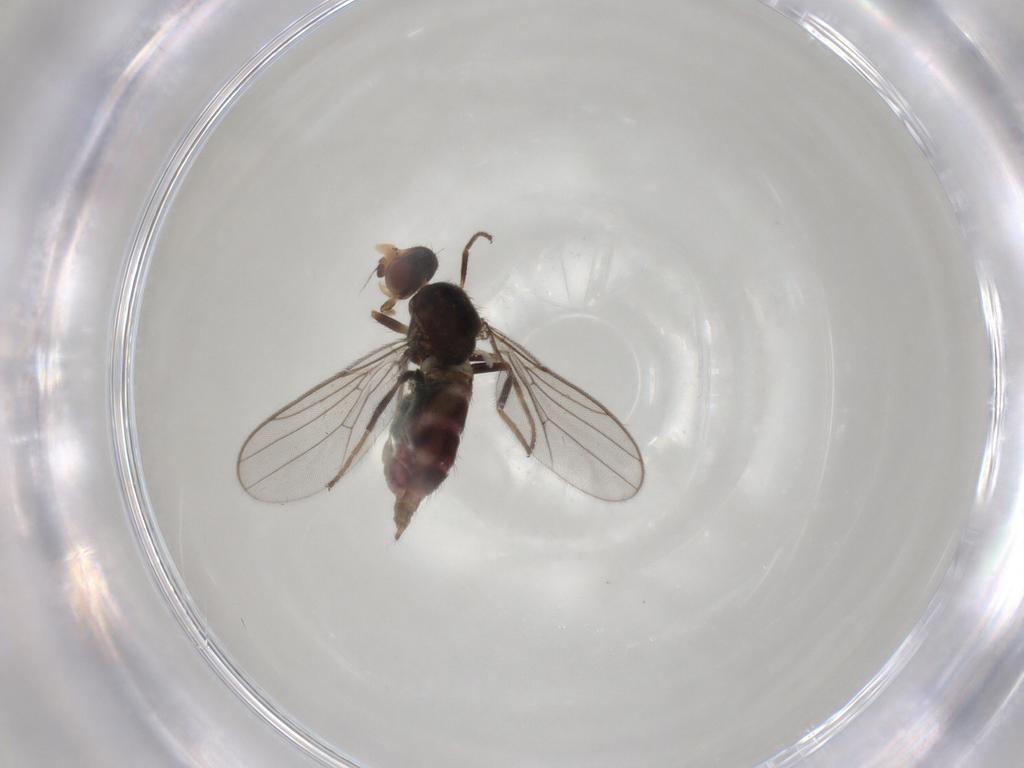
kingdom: Animalia
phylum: Arthropoda
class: Insecta
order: Diptera
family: Chloropidae
